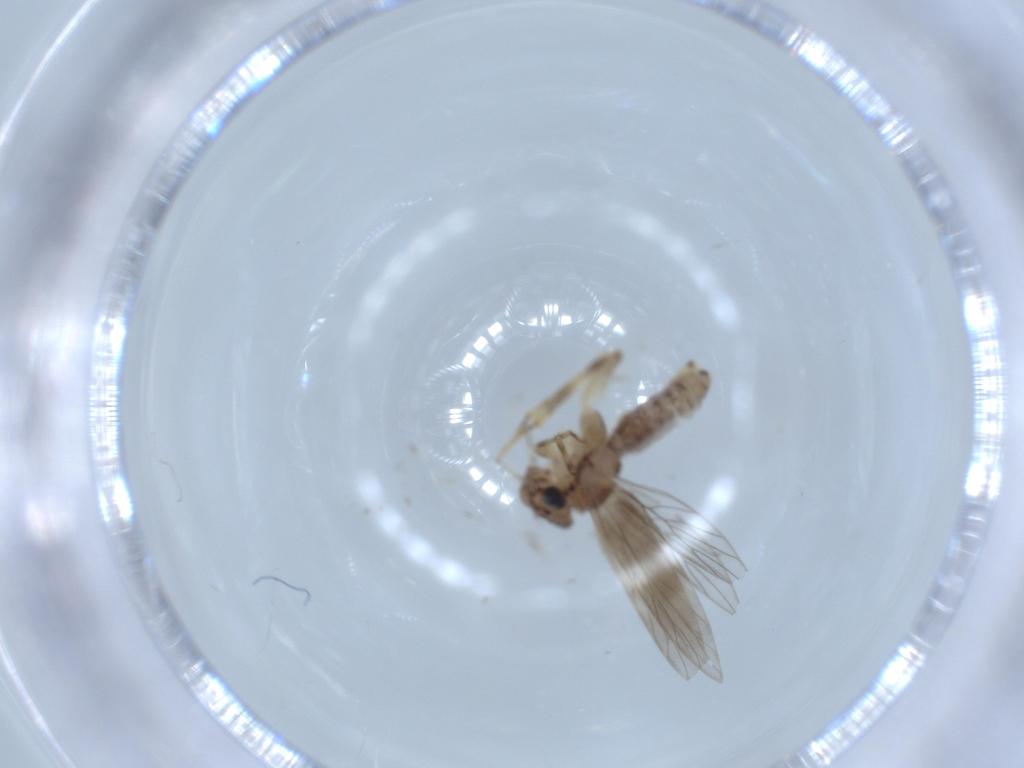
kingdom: Animalia
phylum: Arthropoda
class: Insecta
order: Psocodea
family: Lepidopsocidae
